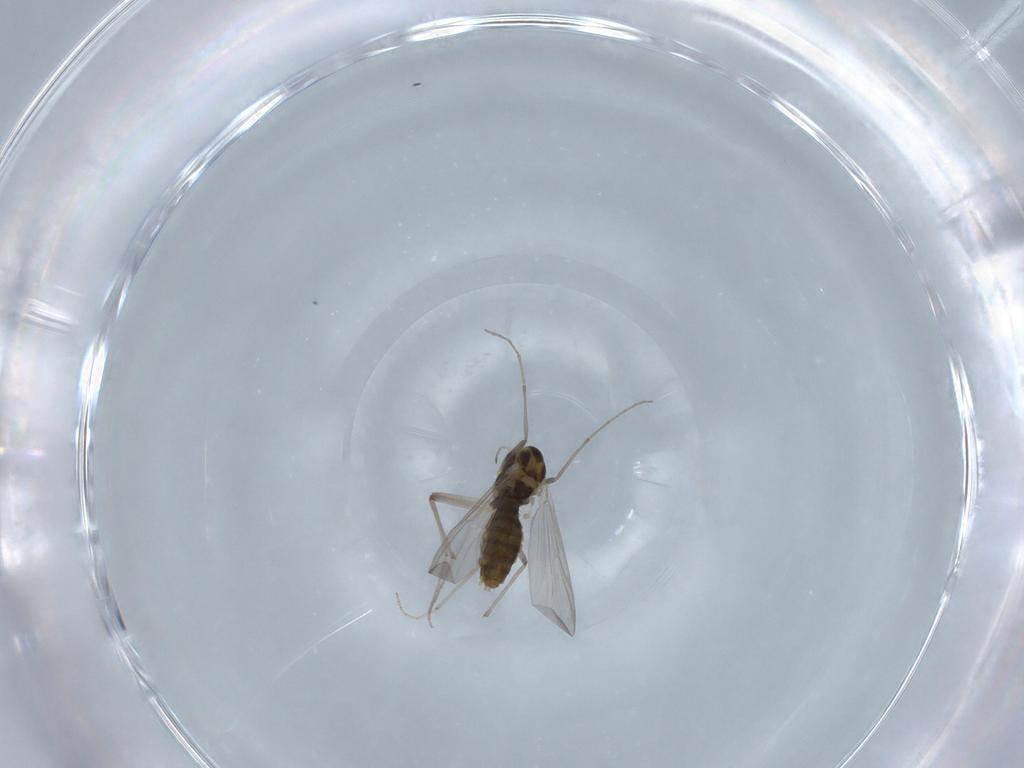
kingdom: Animalia
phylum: Arthropoda
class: Insecta
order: Diptera
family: Chironomidae
